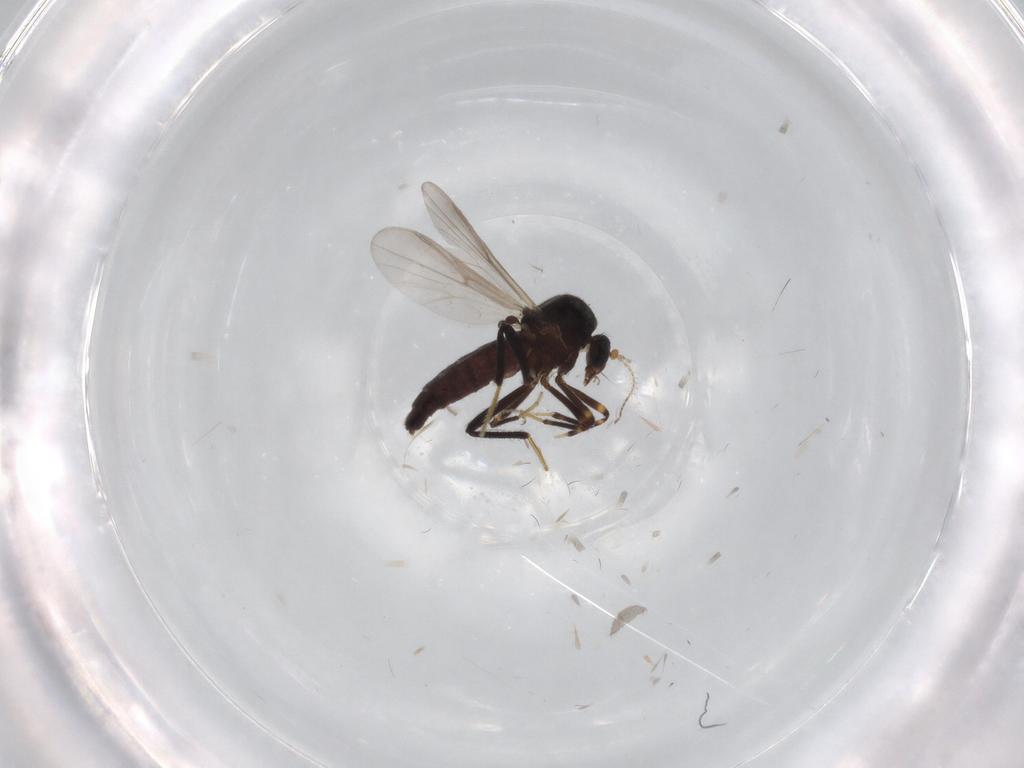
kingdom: Animalia
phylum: Arthropoda
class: Insecta
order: Diptera
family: Ceratopogonidae
